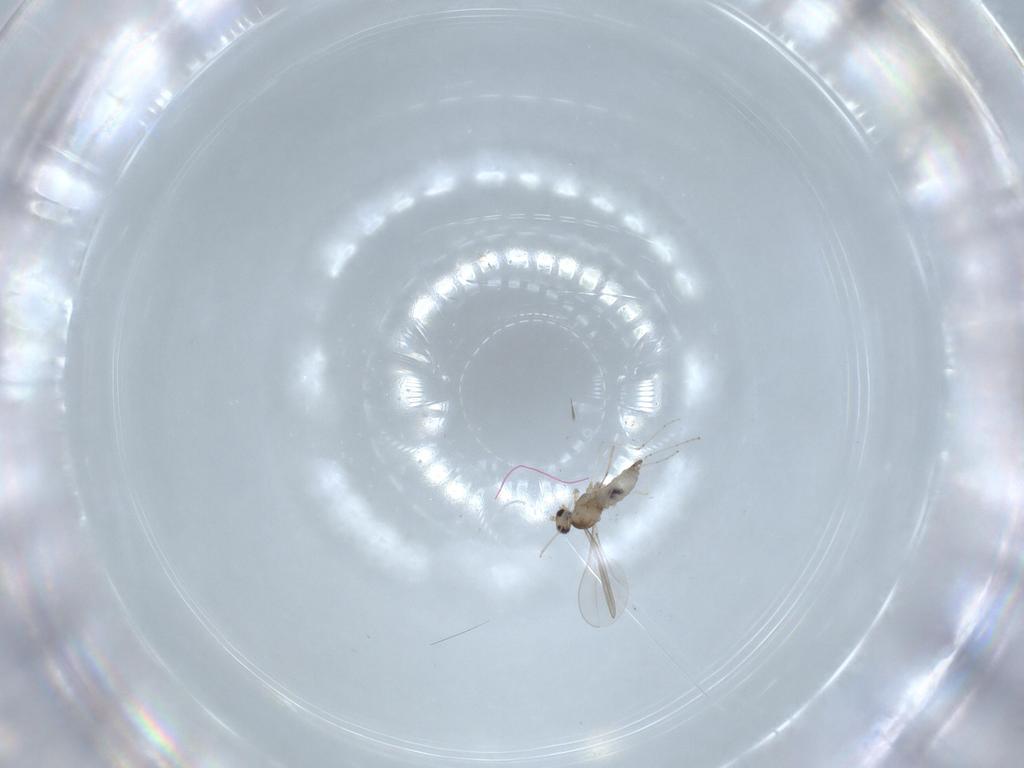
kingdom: Animalia
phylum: Arthropoda
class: Insecta
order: Diptera
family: Cecidomyiidae
